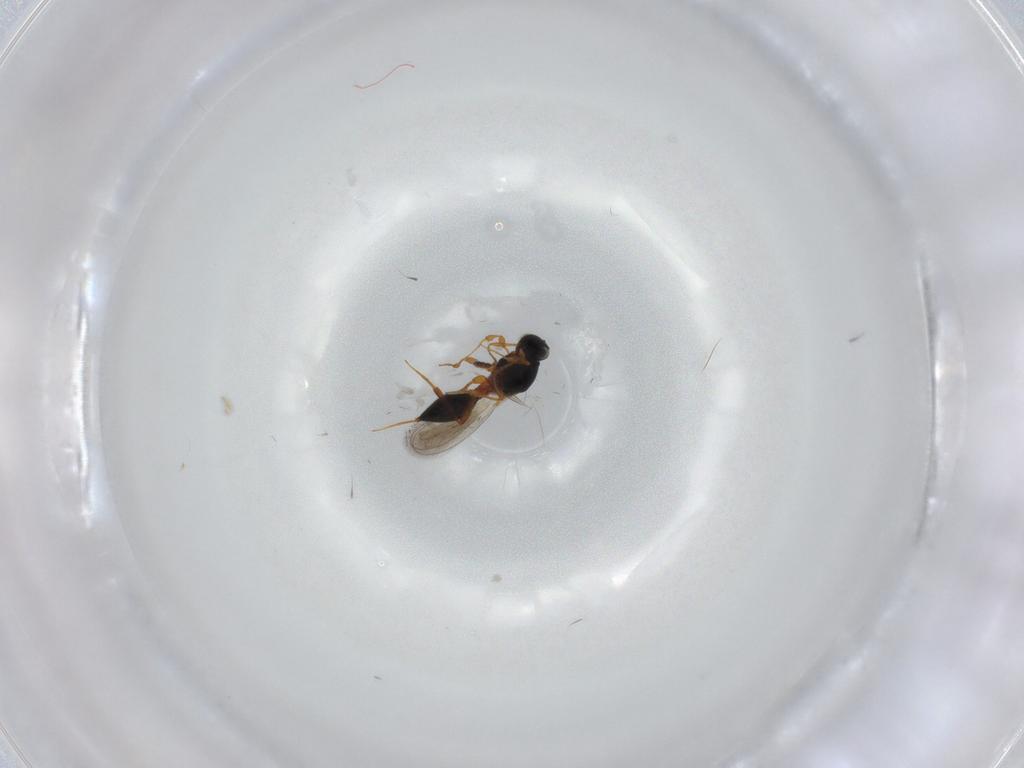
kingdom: Animalia
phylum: Arthropoda
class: Insecta
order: Hymenoptera
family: Platygastridae
